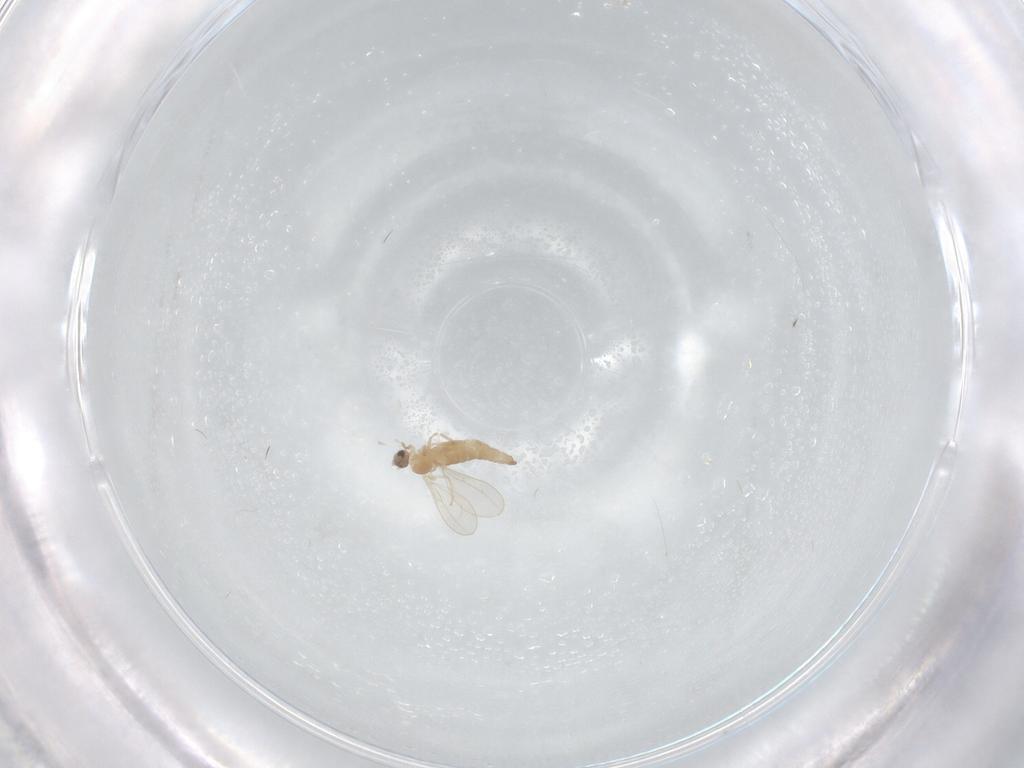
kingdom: Animalia
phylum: Arthropoda
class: Insecta
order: Diptera
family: Cecidomyiidae
